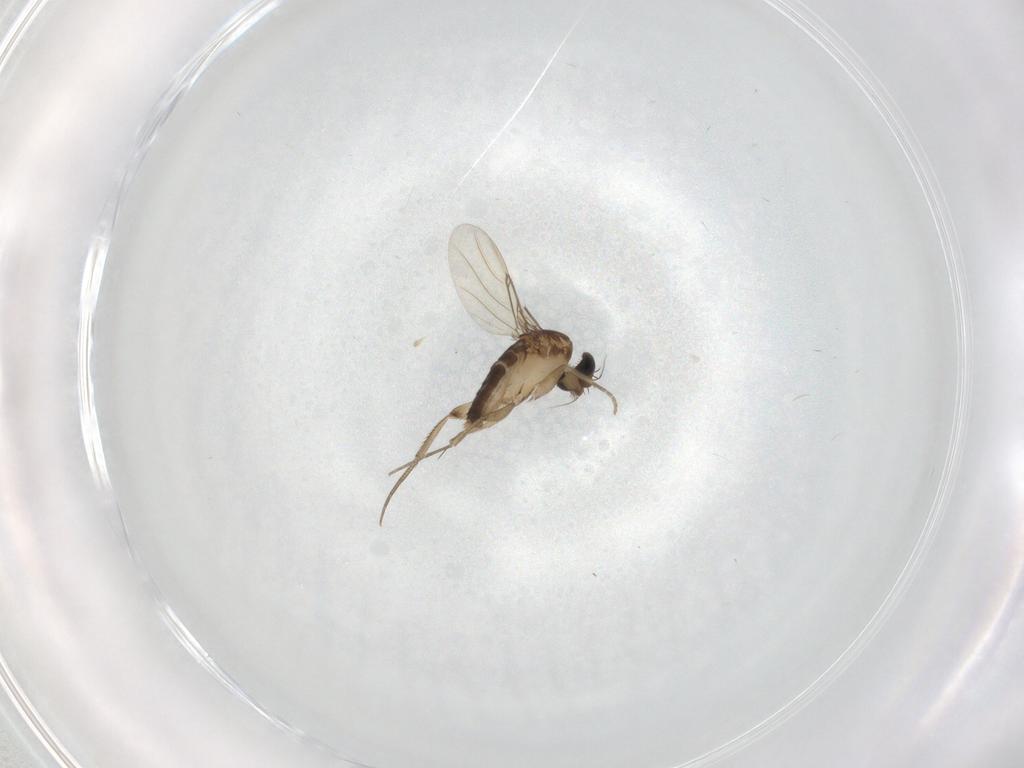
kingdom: Animalia
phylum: Arthropoda
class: Insecta
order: Diptera
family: Phoridae
